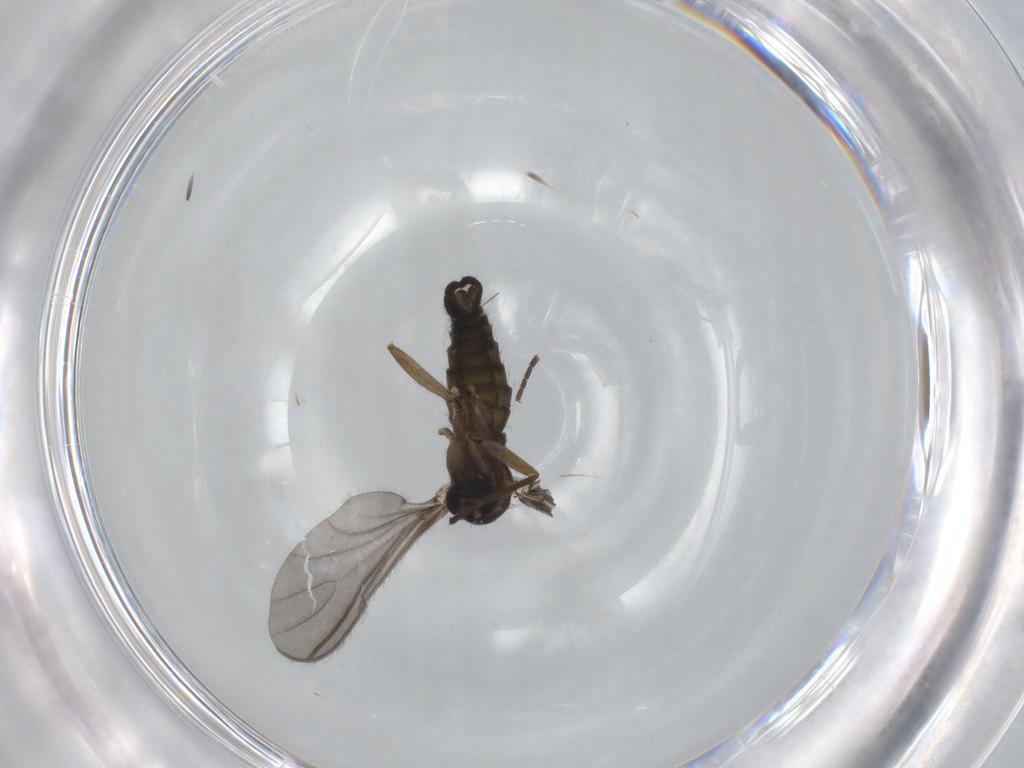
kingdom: Animalia
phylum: Arthropoda
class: Insecta
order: Diptera
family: Sciaridae
